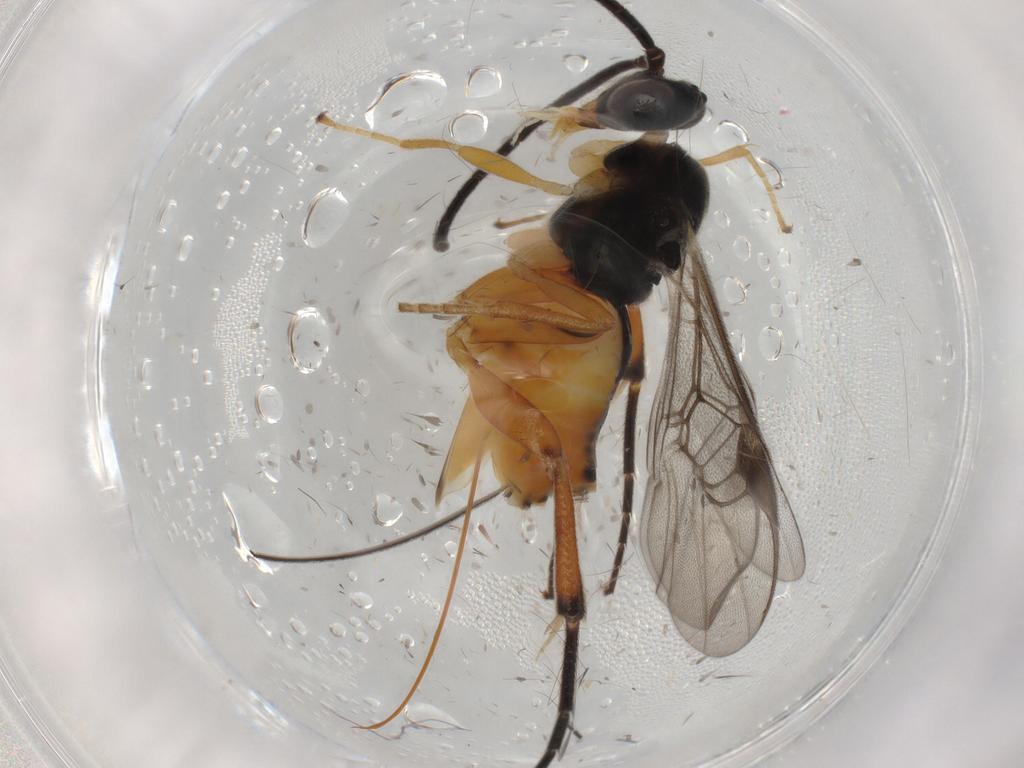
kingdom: Animalia
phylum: Arthropoda
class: Insecta
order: Hymenoptera
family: Braconidae
